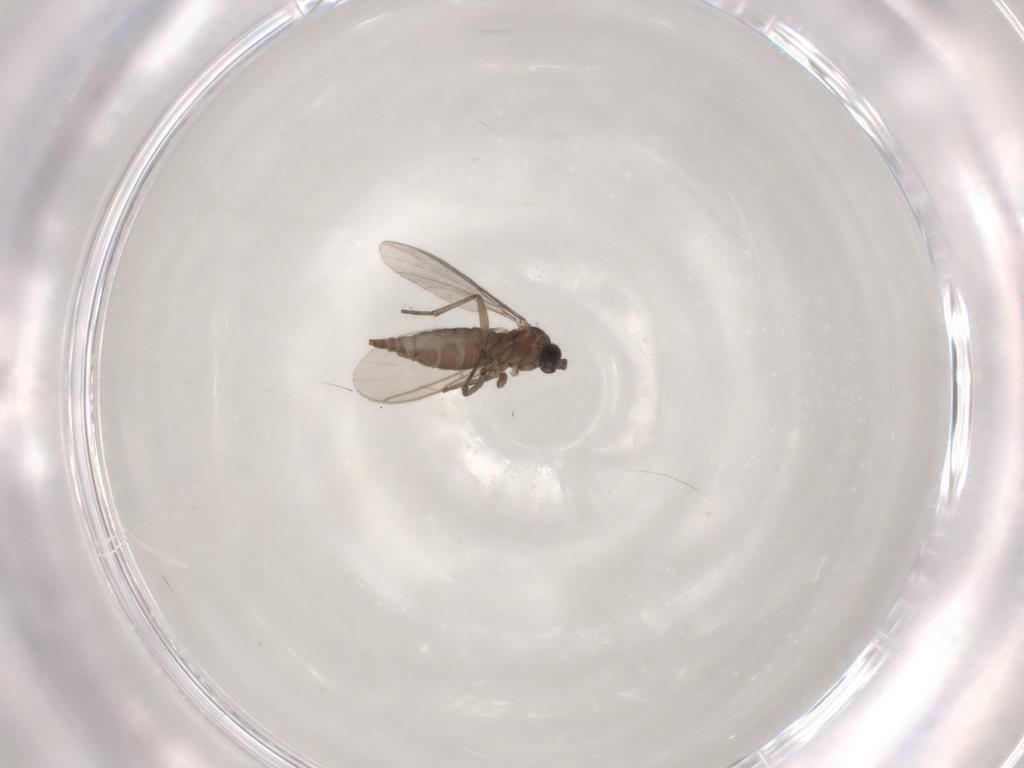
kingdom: Animalia
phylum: Arthropoda
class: Insecta
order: Diptera
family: Sciaridae
